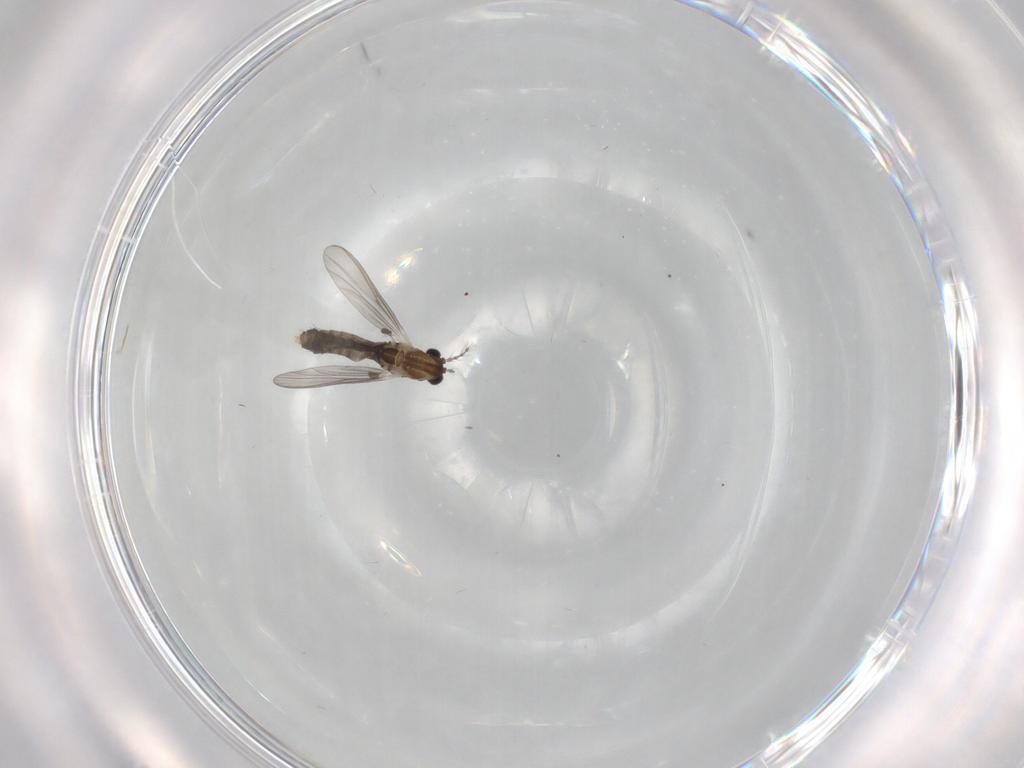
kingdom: Animalia
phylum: Arthropoda
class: Insecta
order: Diptera
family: Chironomidae
